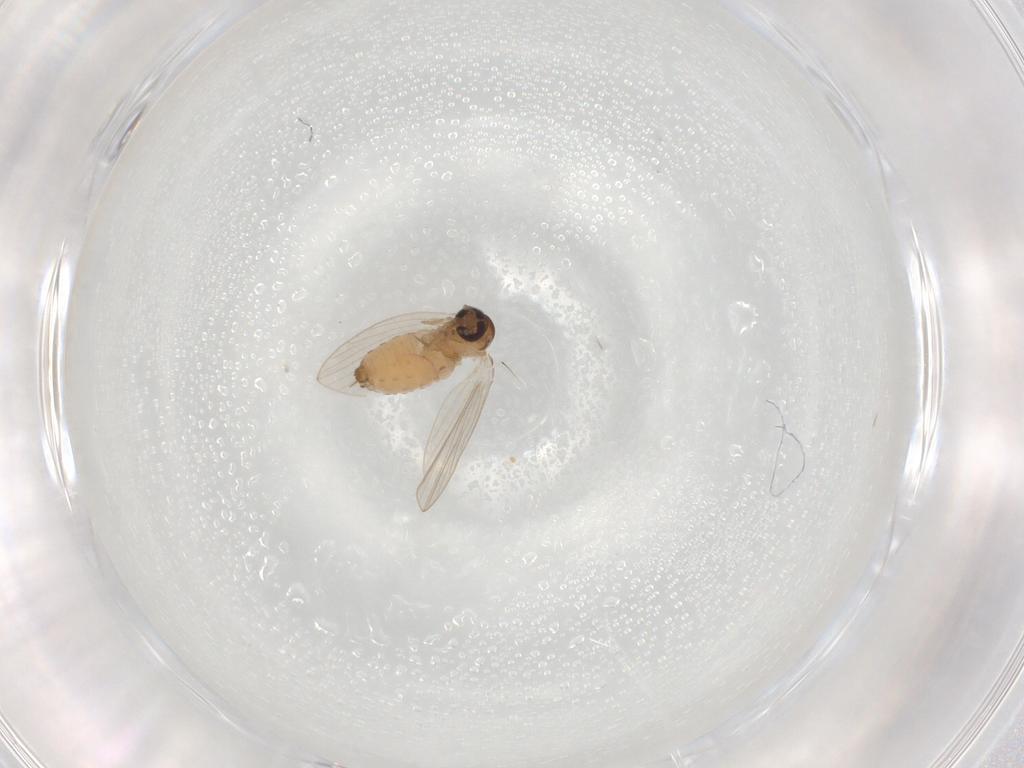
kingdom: Animalia
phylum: Arthropoda
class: Insecta
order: Diptera
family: Psychodidae
